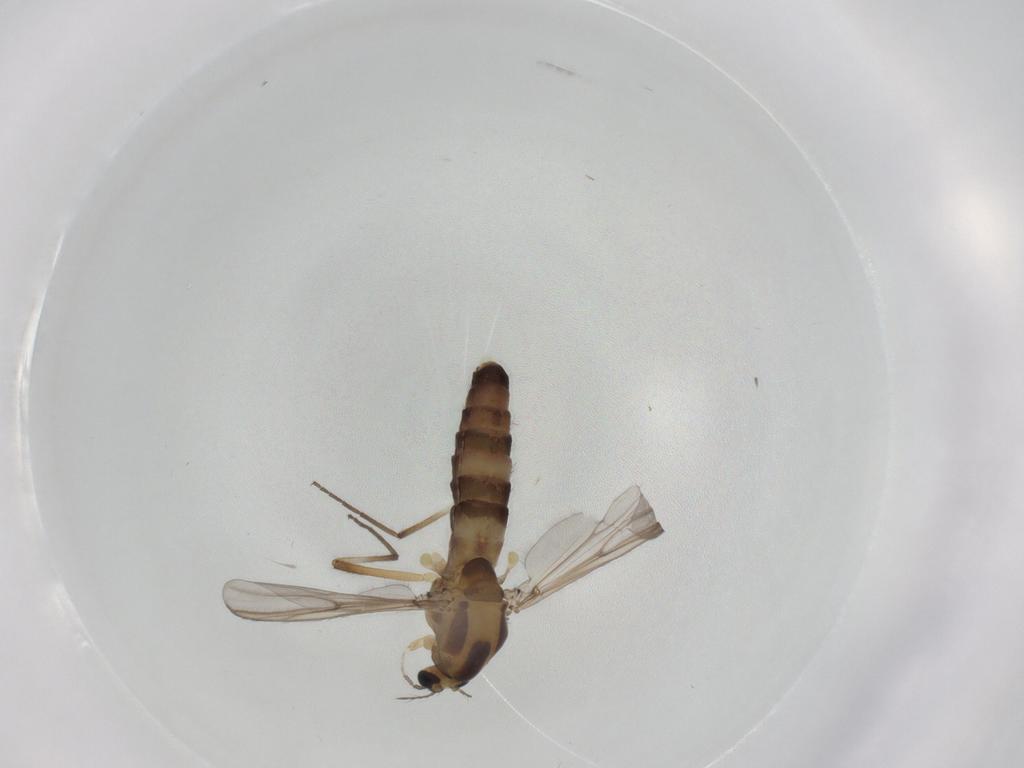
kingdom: Animalia
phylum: Arthropoda
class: Insecta
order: Diptera
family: Chironomidae
